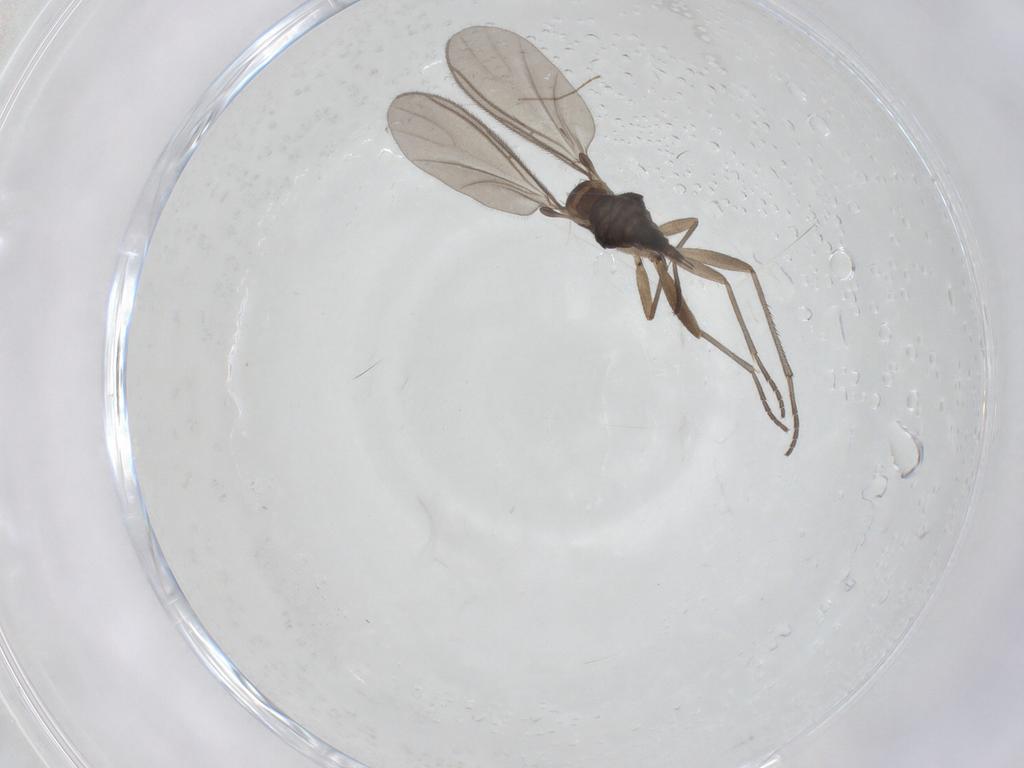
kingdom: Animalia
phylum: Arthropoda
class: Insecta
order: Diptera
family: Sciaridae
